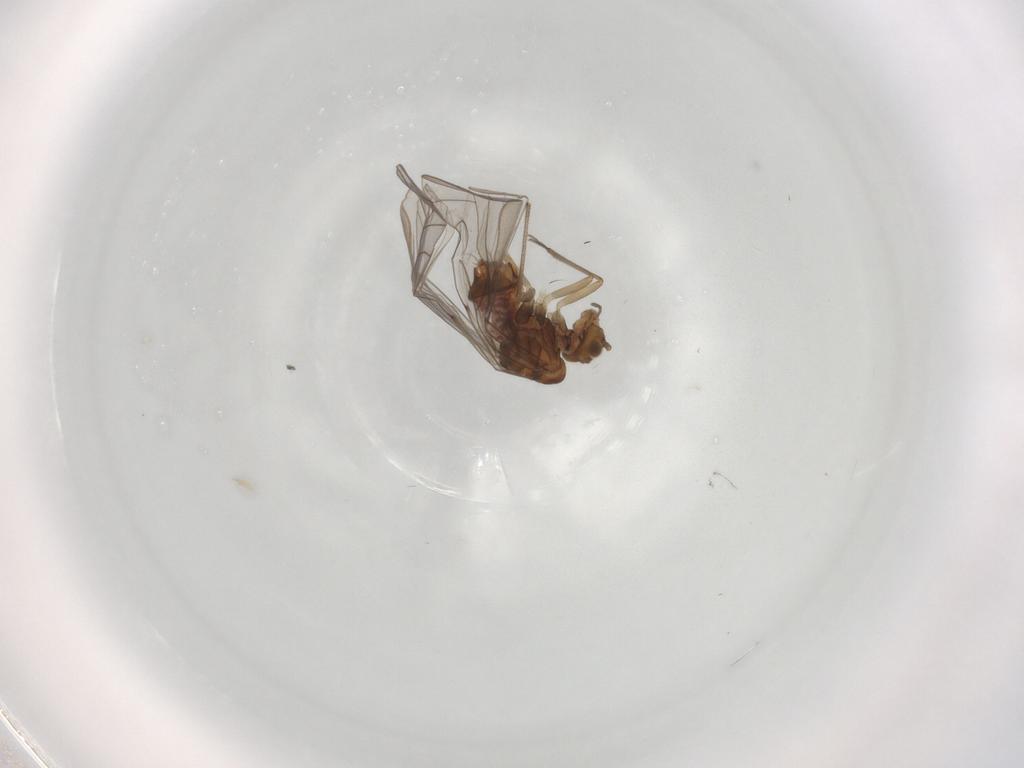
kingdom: Animalia
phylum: Arthropoda
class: Insecta
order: Psocodea
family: Lachesillidae
